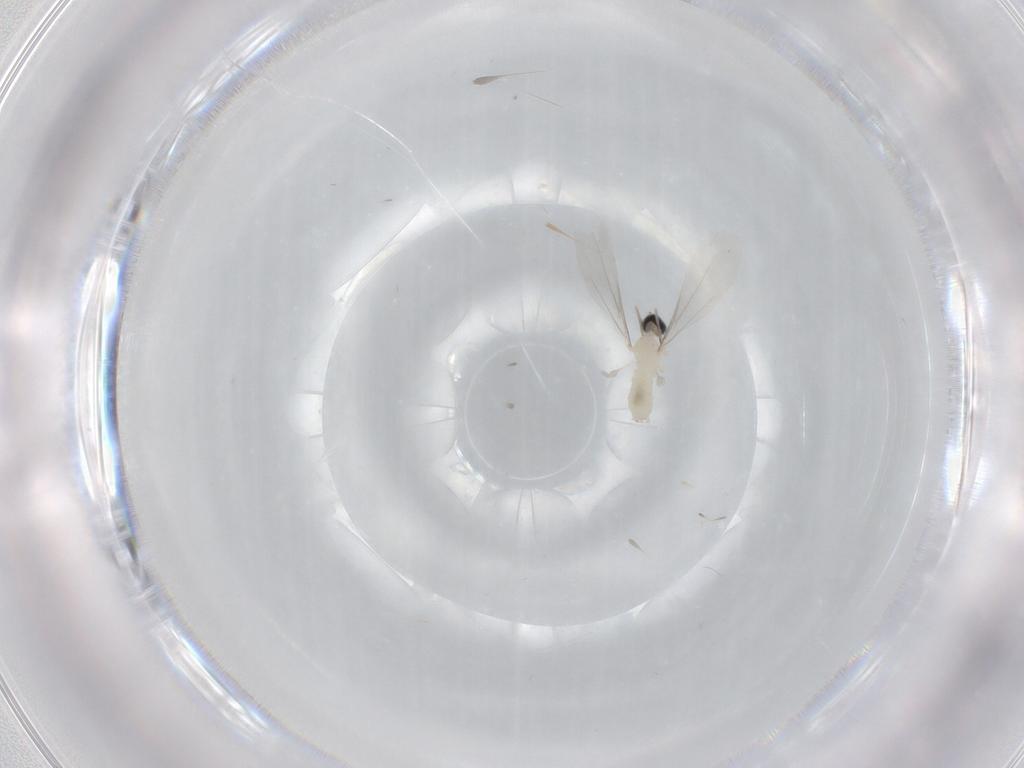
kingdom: Animalia
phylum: Arthropoda
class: Insecta
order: Diptera
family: Cecidomyiidae
